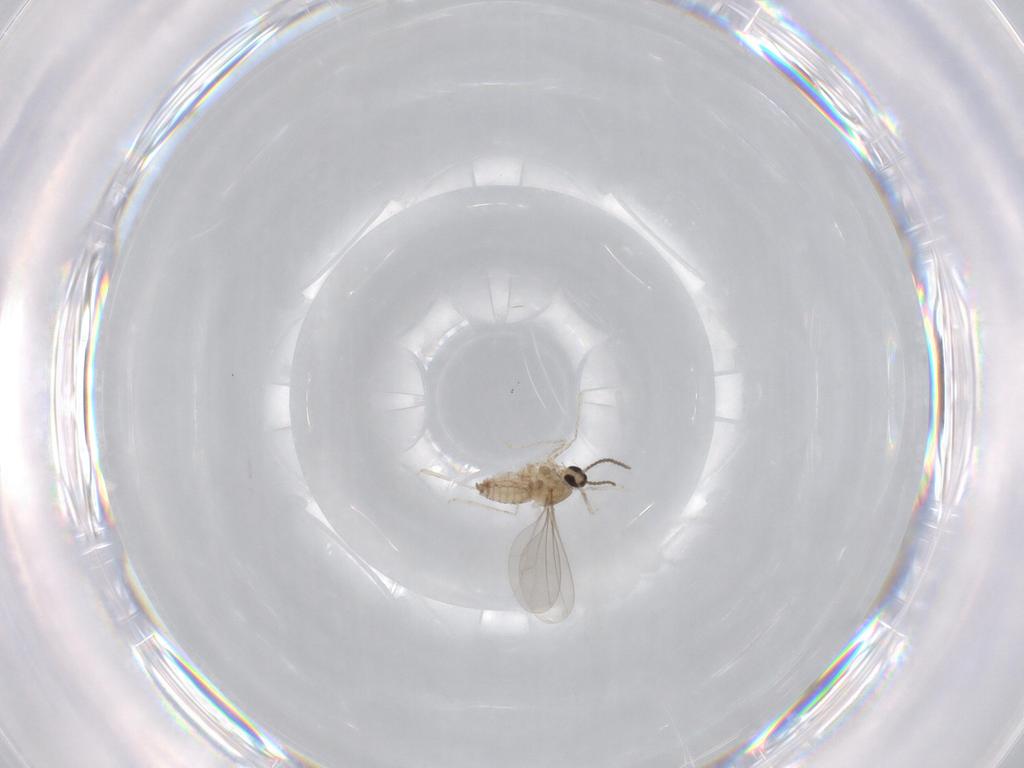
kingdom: Animalia
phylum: Arthropoda
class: Insecta
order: Diptera
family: Cecidomyiidae
